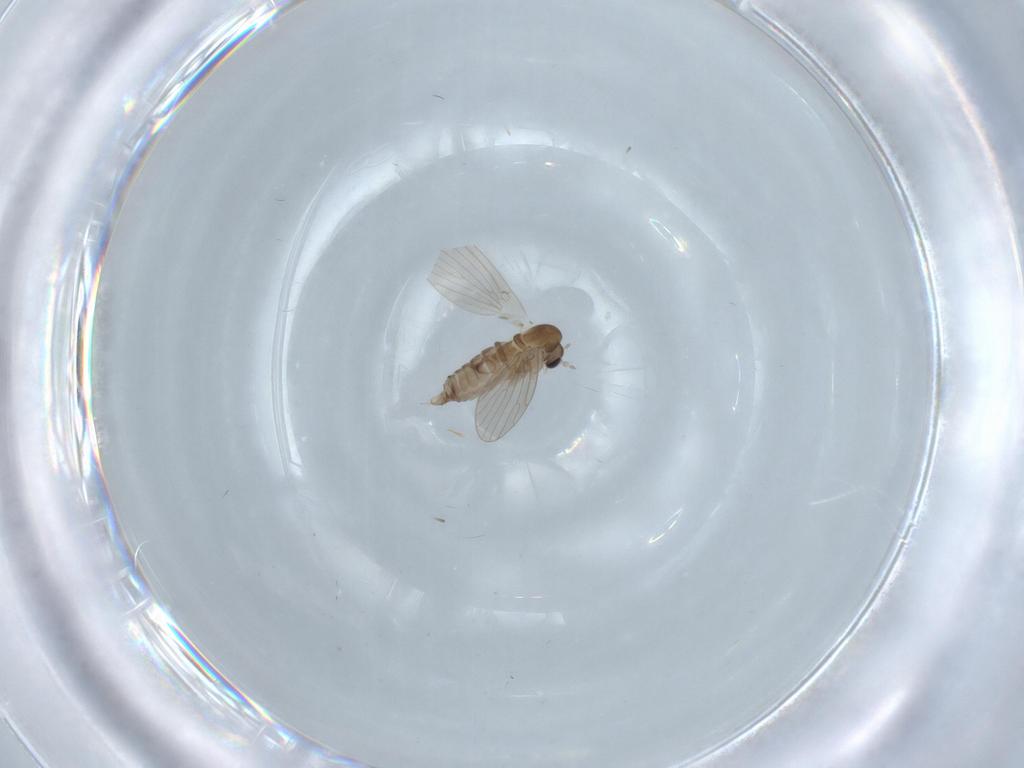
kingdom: Animalia
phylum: Arthropoda
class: Insecta
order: Diptera
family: Psychodidae
